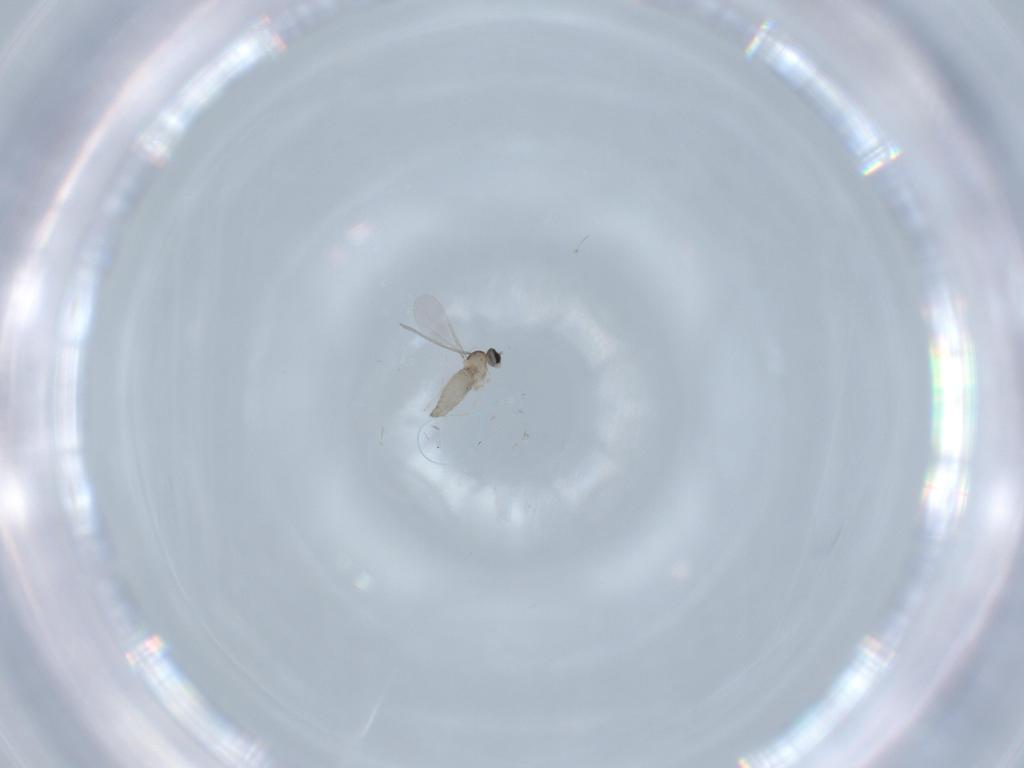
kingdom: Animalia
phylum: Arthropoda
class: Insecta
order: Diptera
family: Cecidomyiidae
